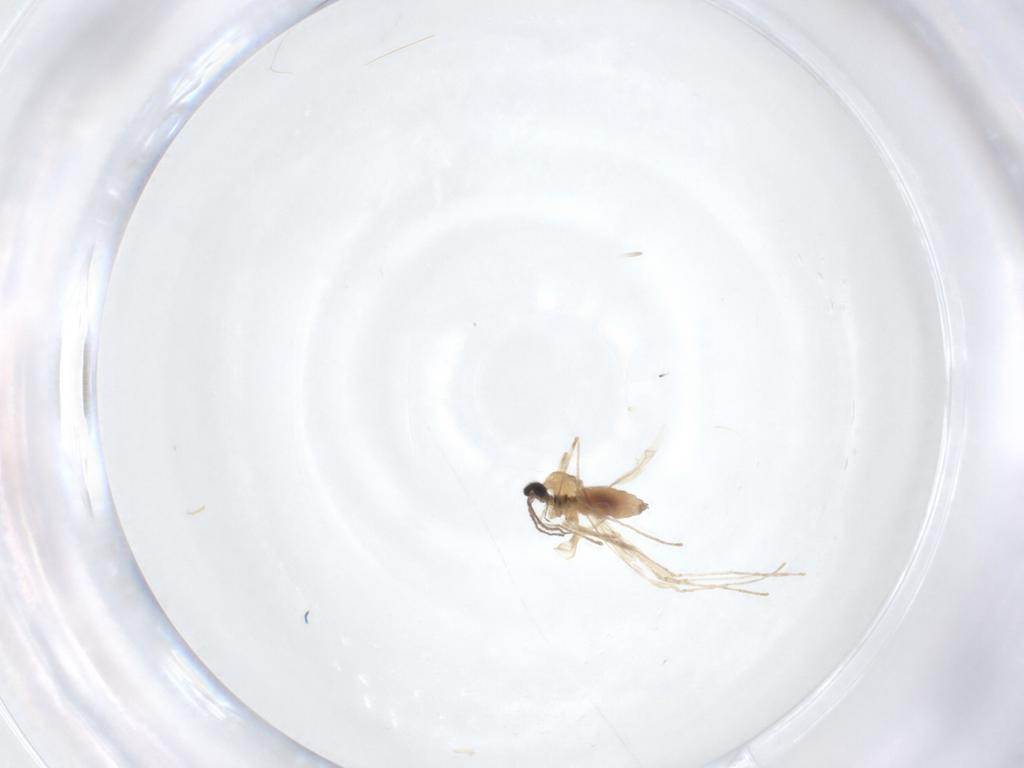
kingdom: Animalia
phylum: Arthropoda
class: Insecta
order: Diptera
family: Cecidomyiidae
